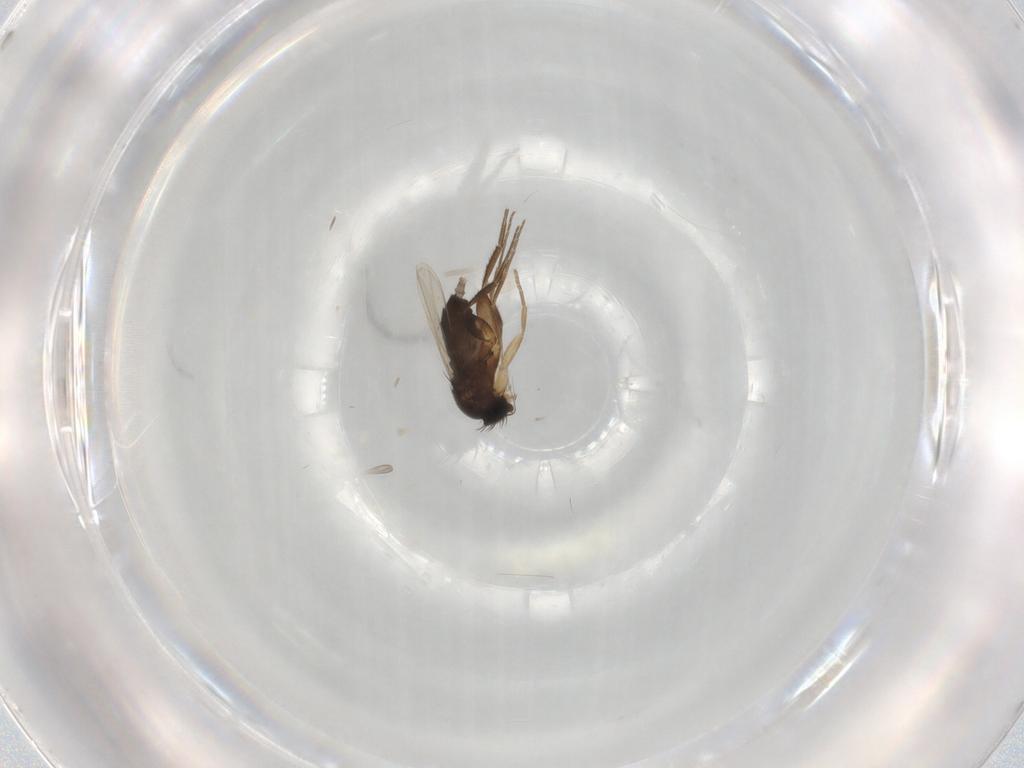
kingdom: Animalia
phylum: Arthropoda
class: Insecta
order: Diptera
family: Phoridae
